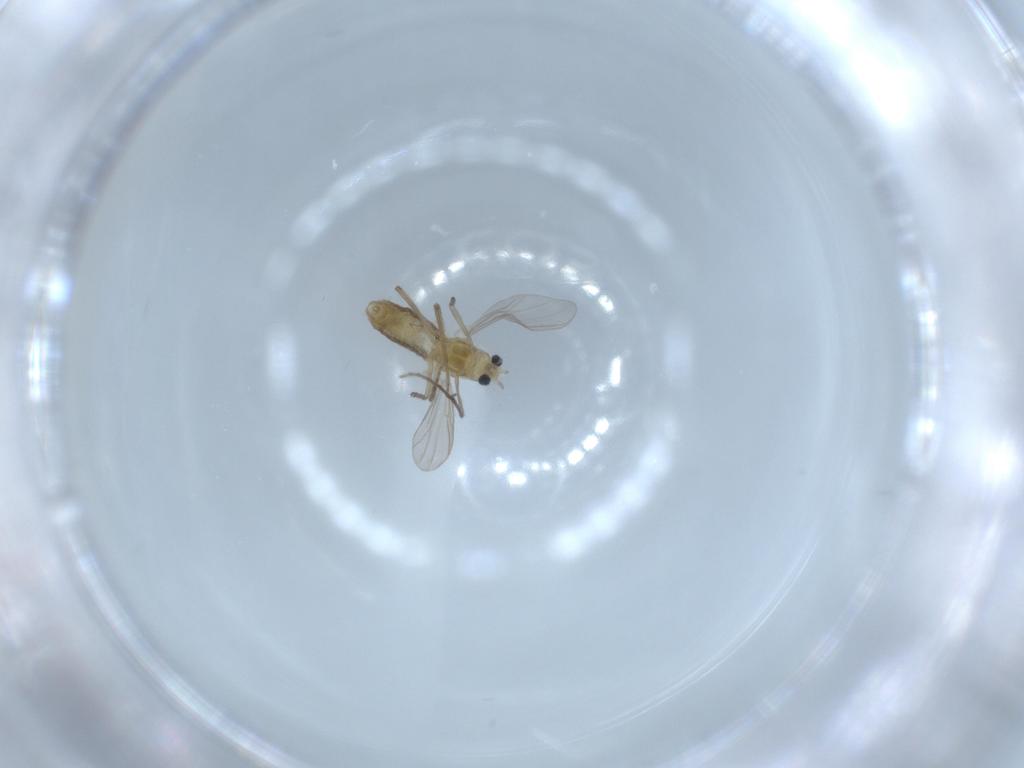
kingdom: Animalia
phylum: Arthropoda
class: Insecta
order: Diptera
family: Chironomidae
